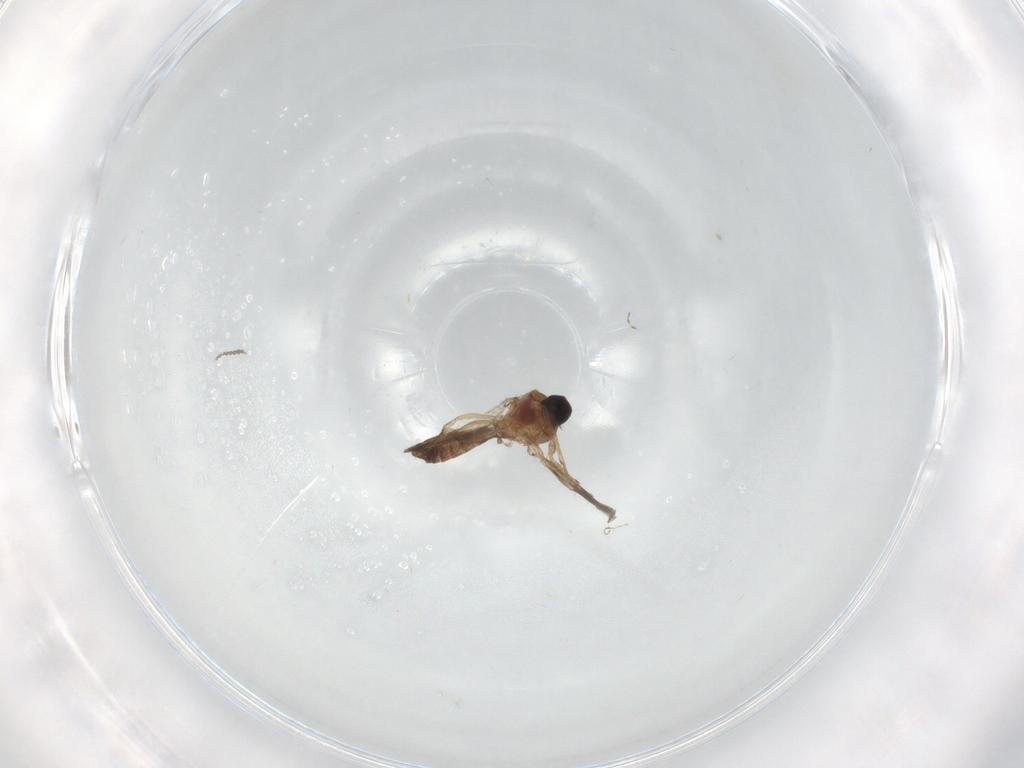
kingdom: Animalia
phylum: Arthropoda
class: Insecta
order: Diptera
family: Ceratopogonidae
